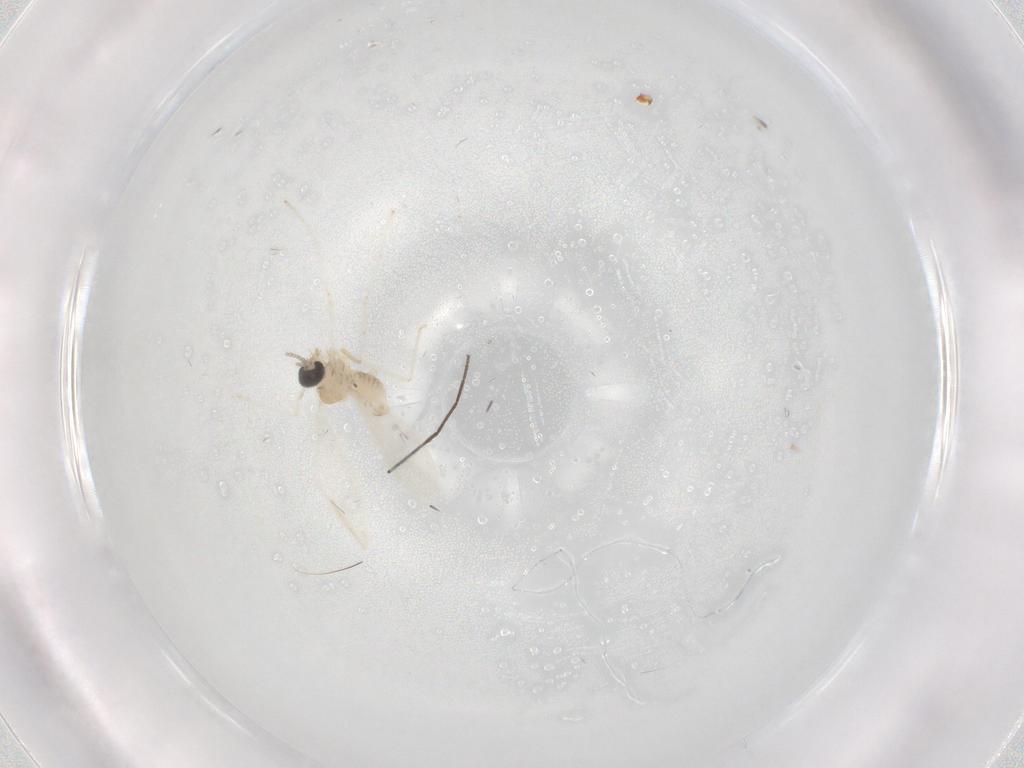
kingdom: Animalia
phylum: Arthropoda
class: Insecta
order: Diptera
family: Cecidomyiidae
